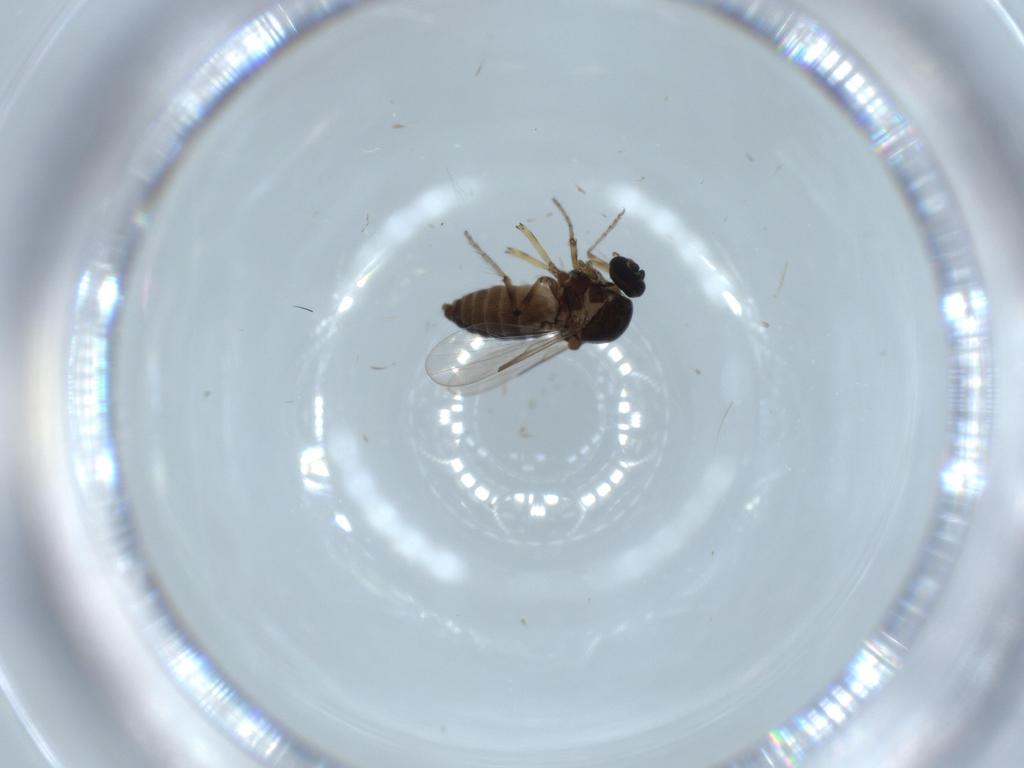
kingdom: Animalia
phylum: Arthropoda
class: Insecta
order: Diptera
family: Ceratopogonidae
